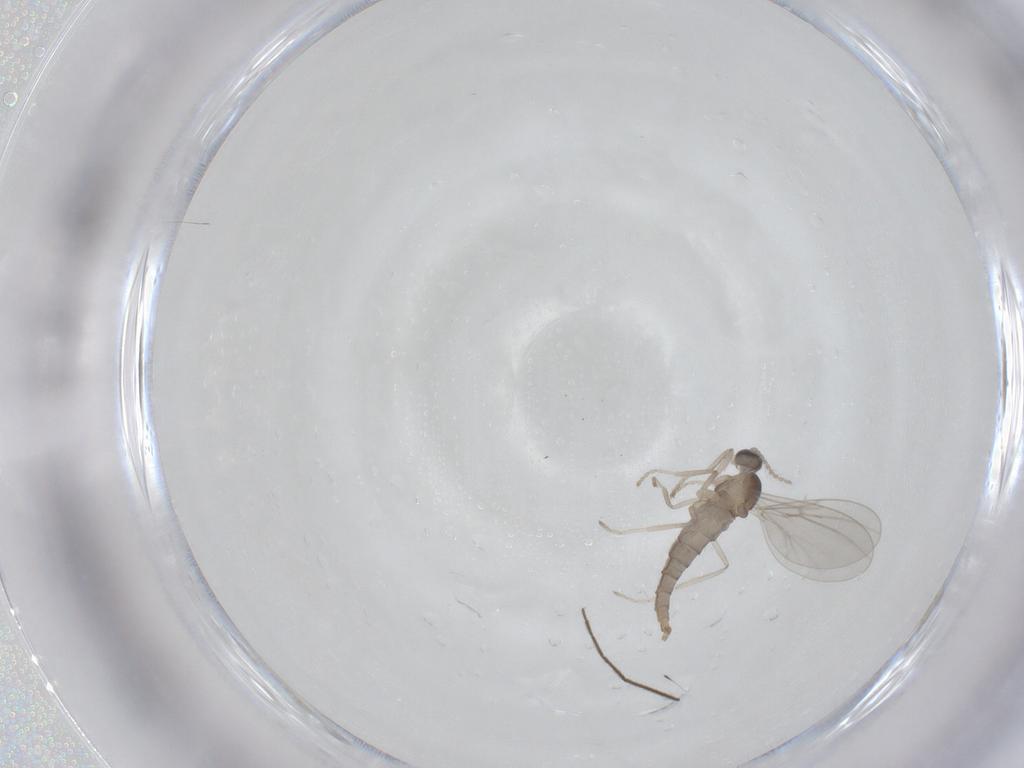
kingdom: Animalia
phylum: Arthropoda
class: Insecta
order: Diptera
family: Cecidomyiidae
